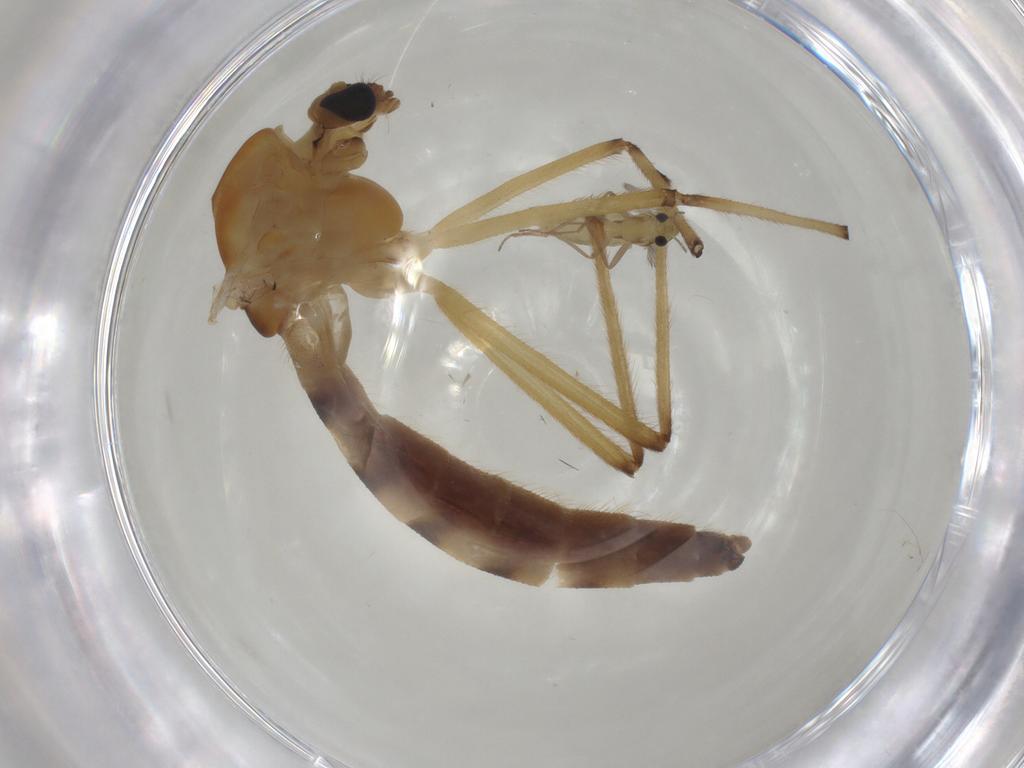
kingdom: Animalia
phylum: Arthropoda
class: Insecta
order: Diptera
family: Chironomidae
